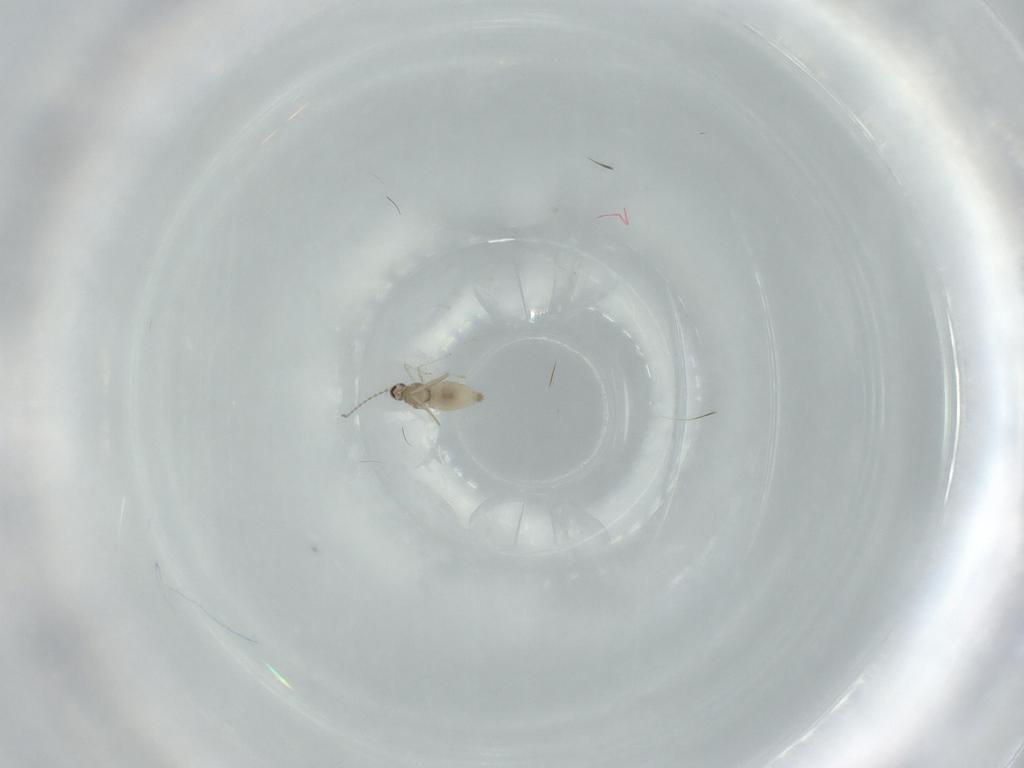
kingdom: Animalia
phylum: Arthropoda
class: Insecta
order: Diptera
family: Cecidomyiidae
